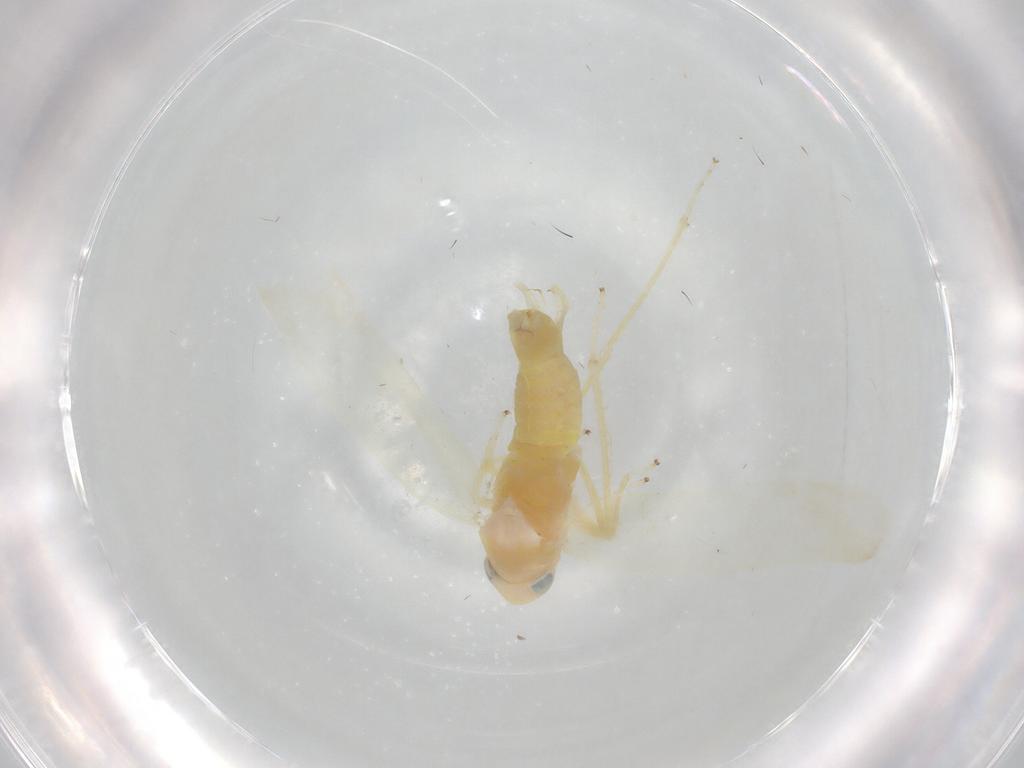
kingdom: Animalia
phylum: Arthropoda
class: Insecta
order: Hemiptera
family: Cicadellidae
